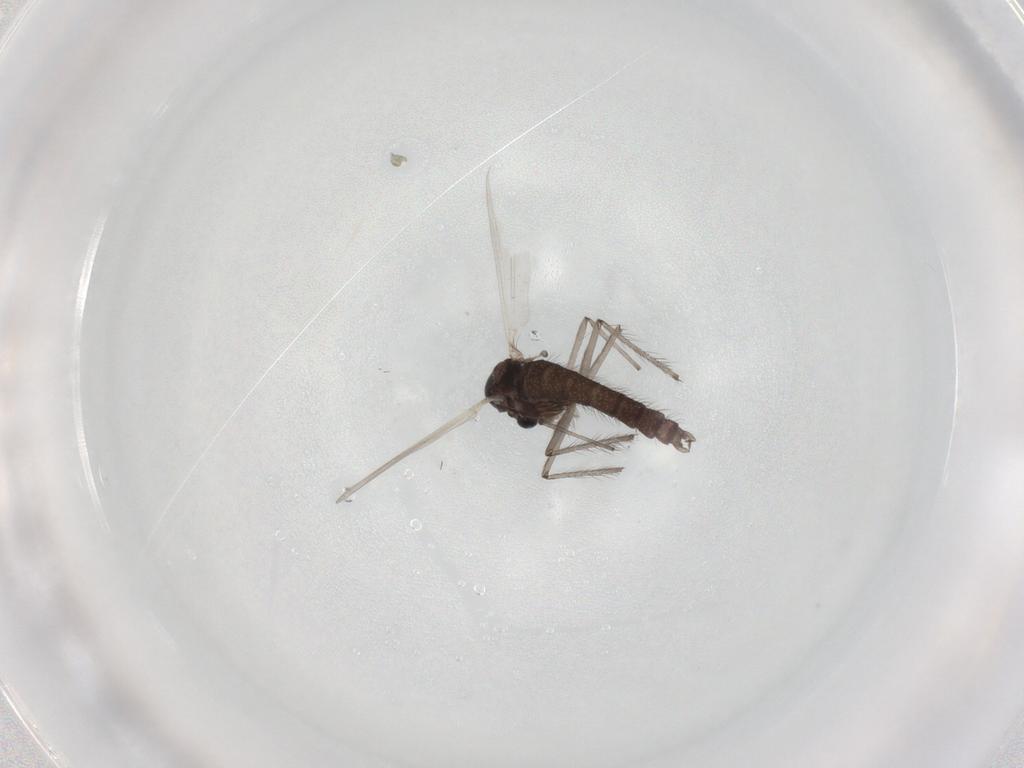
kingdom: Animalia
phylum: Arthropoda
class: Insecta
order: Diptera
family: Chironomidae
